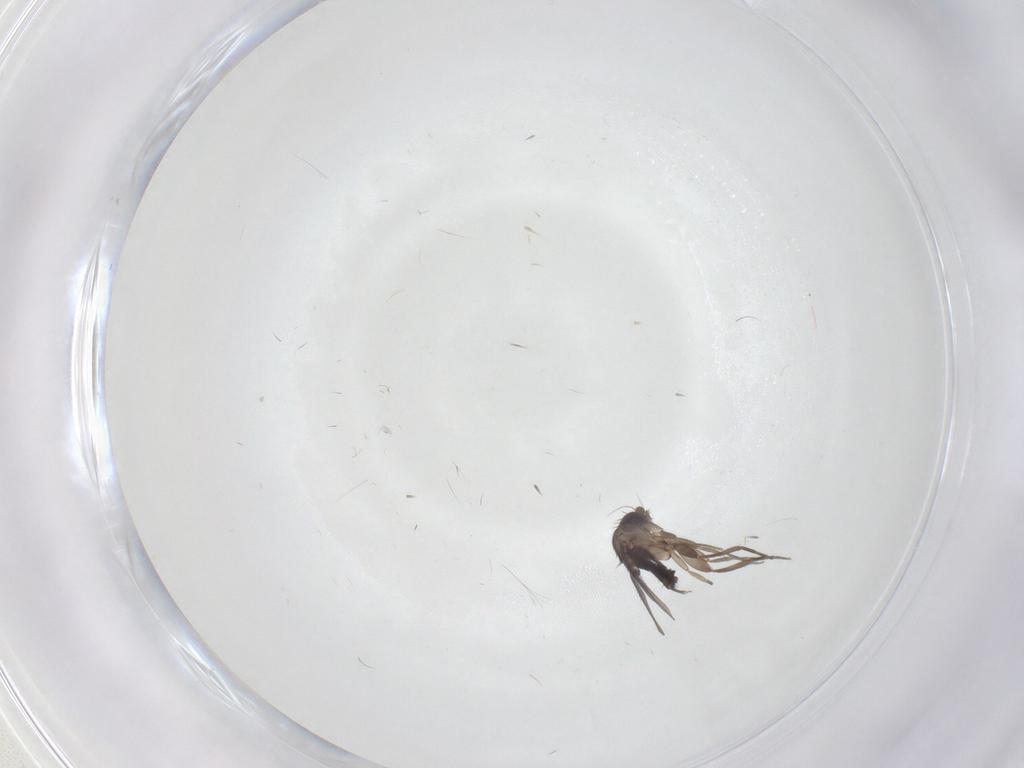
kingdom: Animalia
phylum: Arthropoda
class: Insecta
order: Diptera
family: Phoridae
